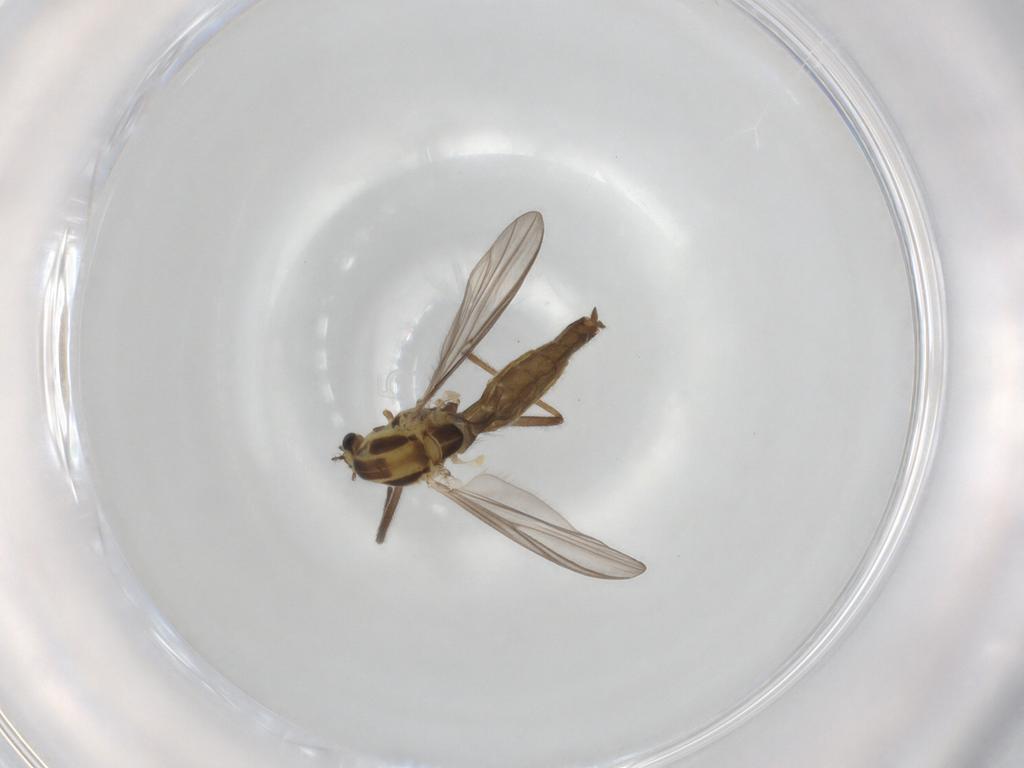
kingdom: Animalia
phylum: Arthropoda
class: Insecta
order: Diptera
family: Chironomidae
